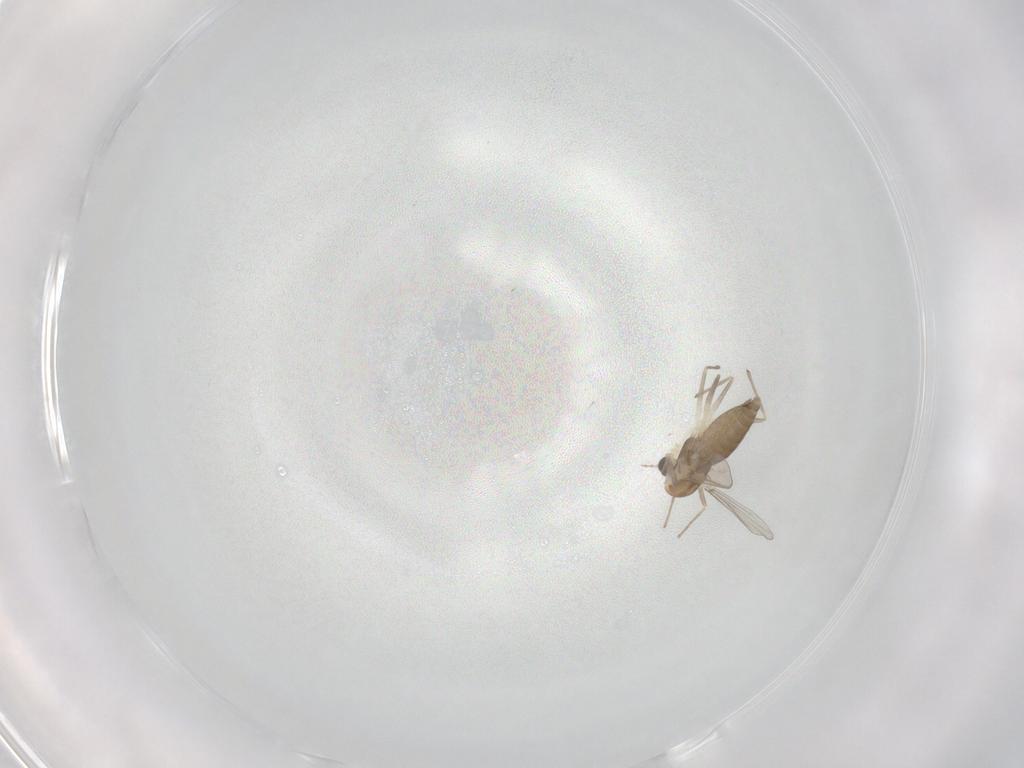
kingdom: Animalia
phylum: Arthropoda
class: Insecta
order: Diptera
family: Chironomidae
